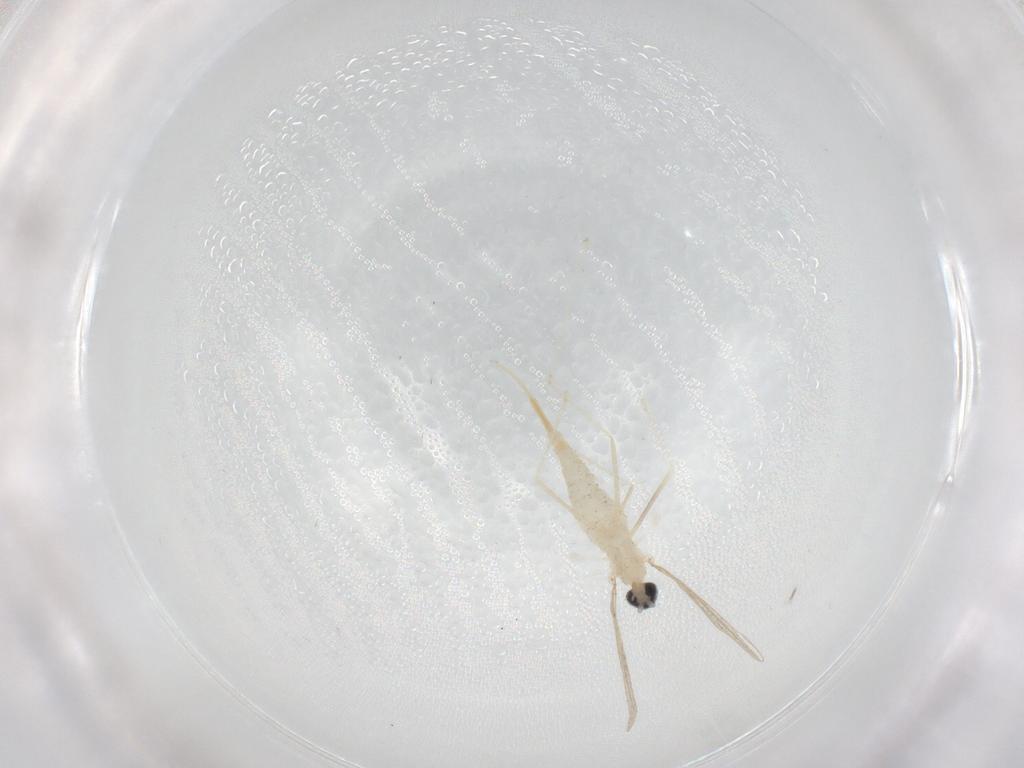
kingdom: Animalia
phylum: Arthropoda
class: Insecta
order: Diptera
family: Cecidomyiidae
